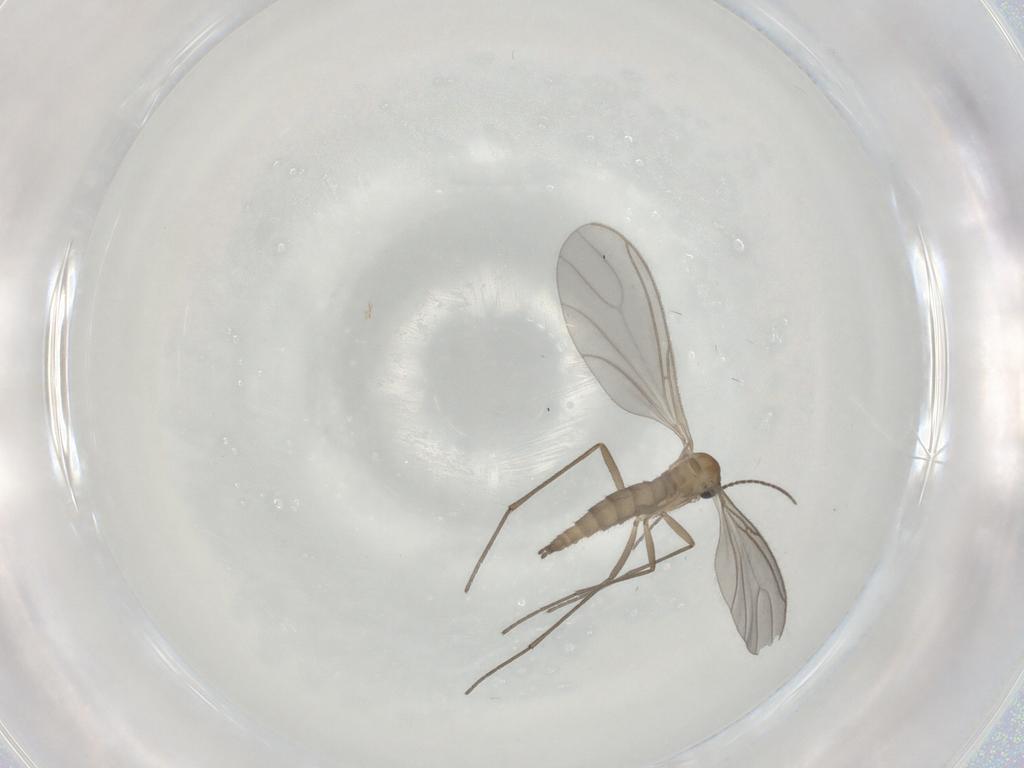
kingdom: Animalia
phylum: Arthropoda
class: Insecta
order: Diptera
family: Sciaridae
